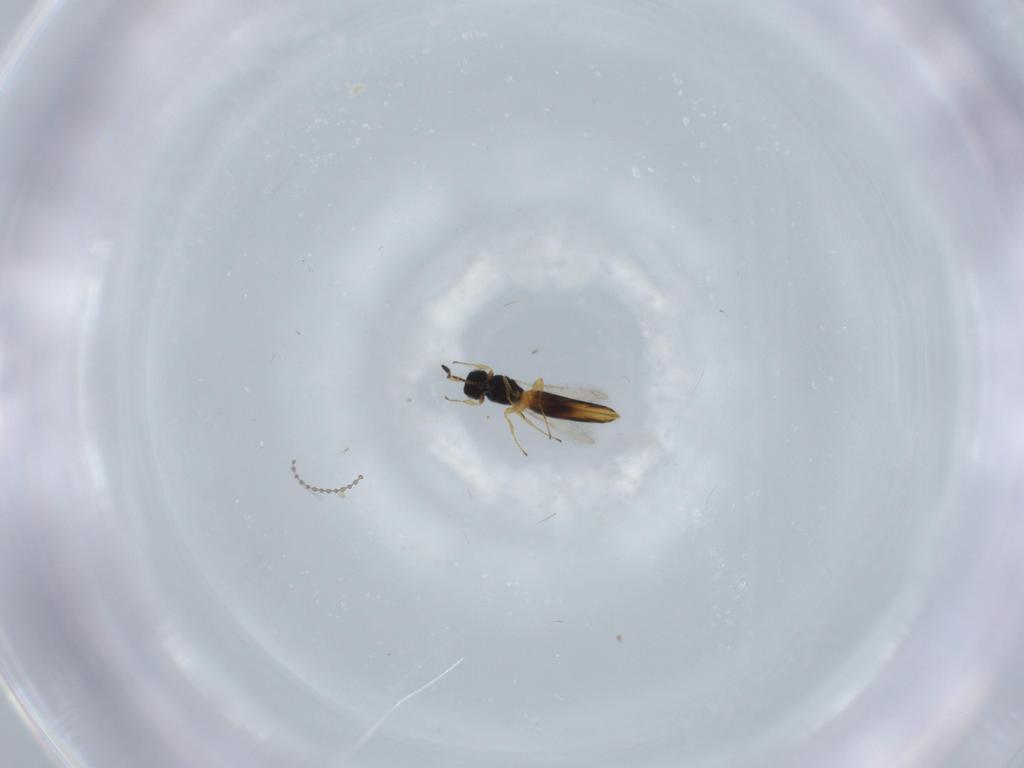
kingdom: Animalia
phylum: Arthropoda
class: Insecta
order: Hymenoptera
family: Scelionidae
